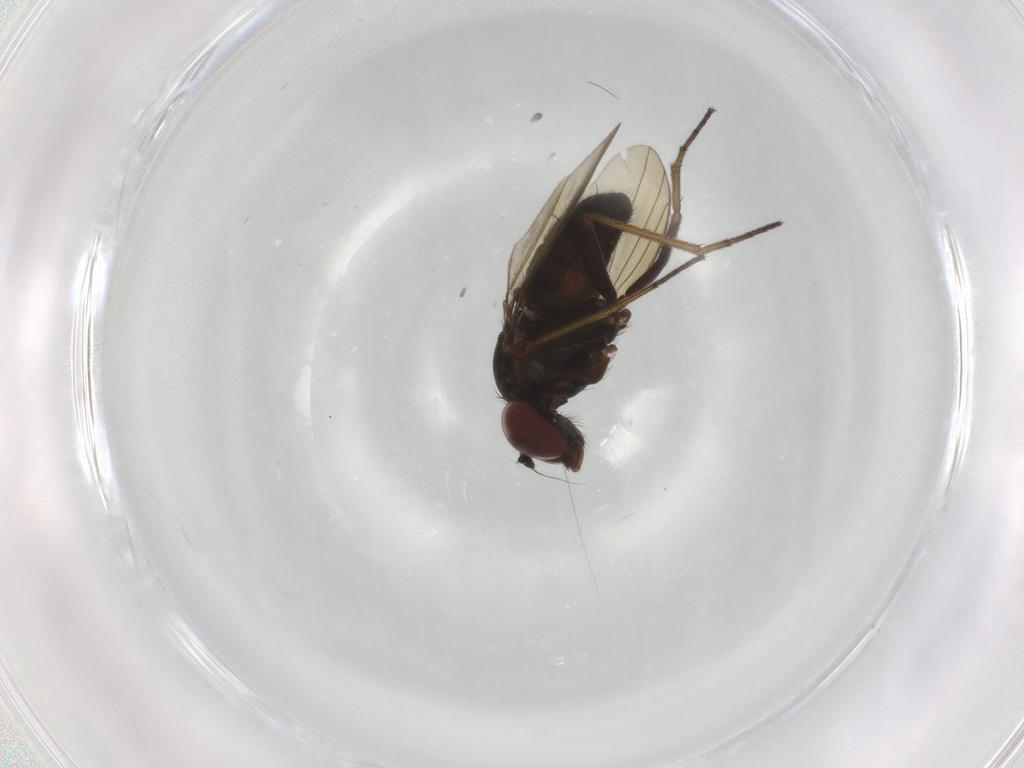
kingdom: Animalia
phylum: Arthropoda
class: Insecta
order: Diptera
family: Dolichopodidae
